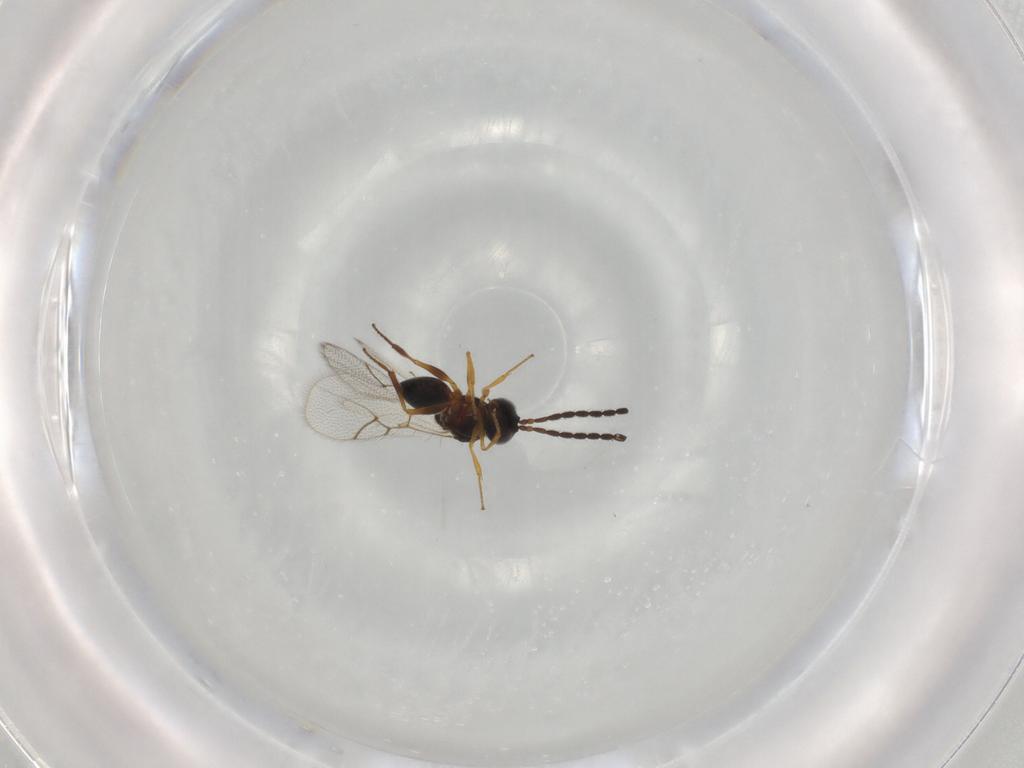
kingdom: Animalia
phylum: Arthropoda
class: Insecta
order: Hymenoptera
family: Figitidae
